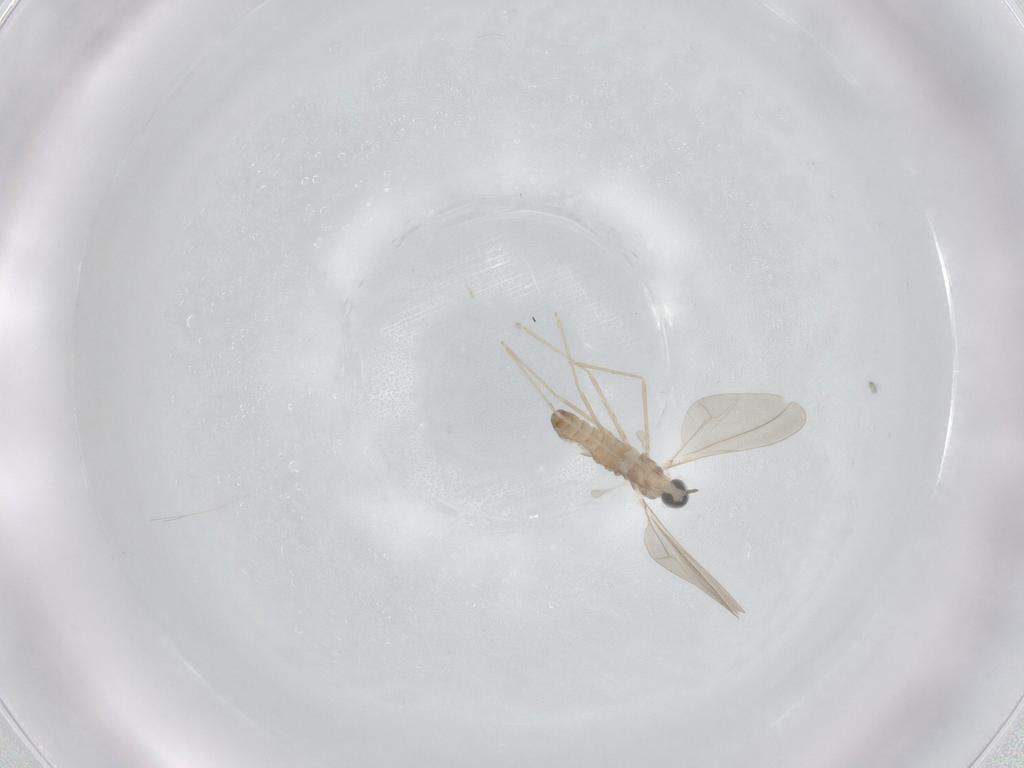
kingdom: Animalia
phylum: Arthropoda
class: Insecta
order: Diptera
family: Cecidomyiidae
